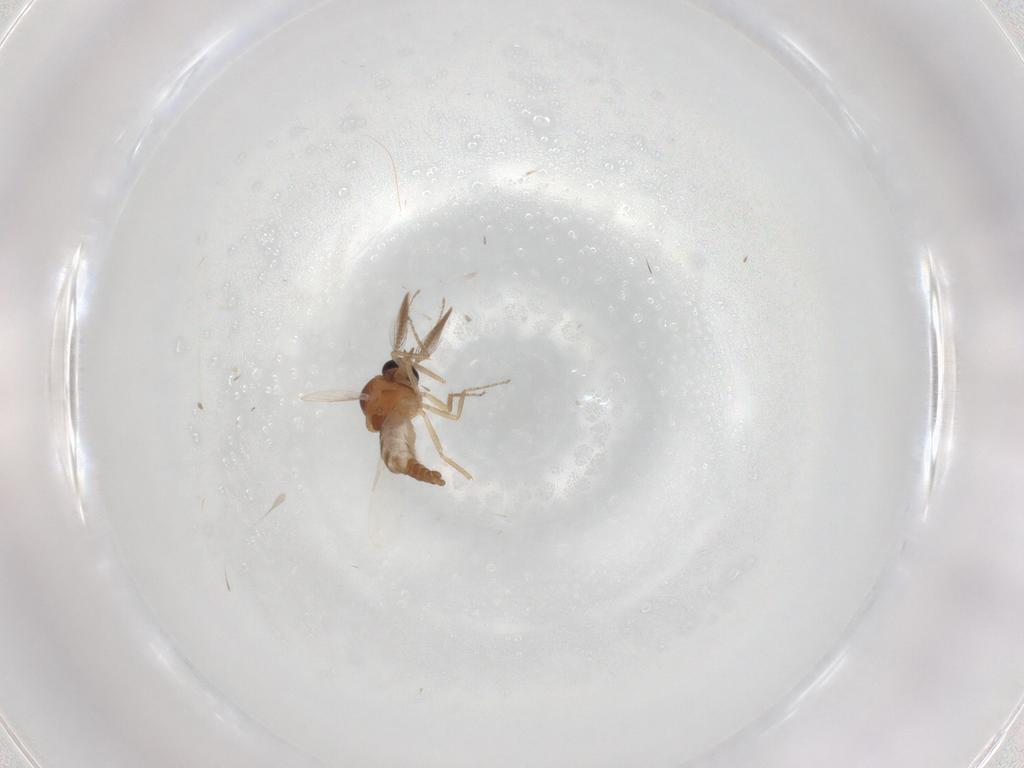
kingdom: Animalia
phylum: Arthropoda
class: Insecta
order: Diptera
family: Ceratopogonidae
